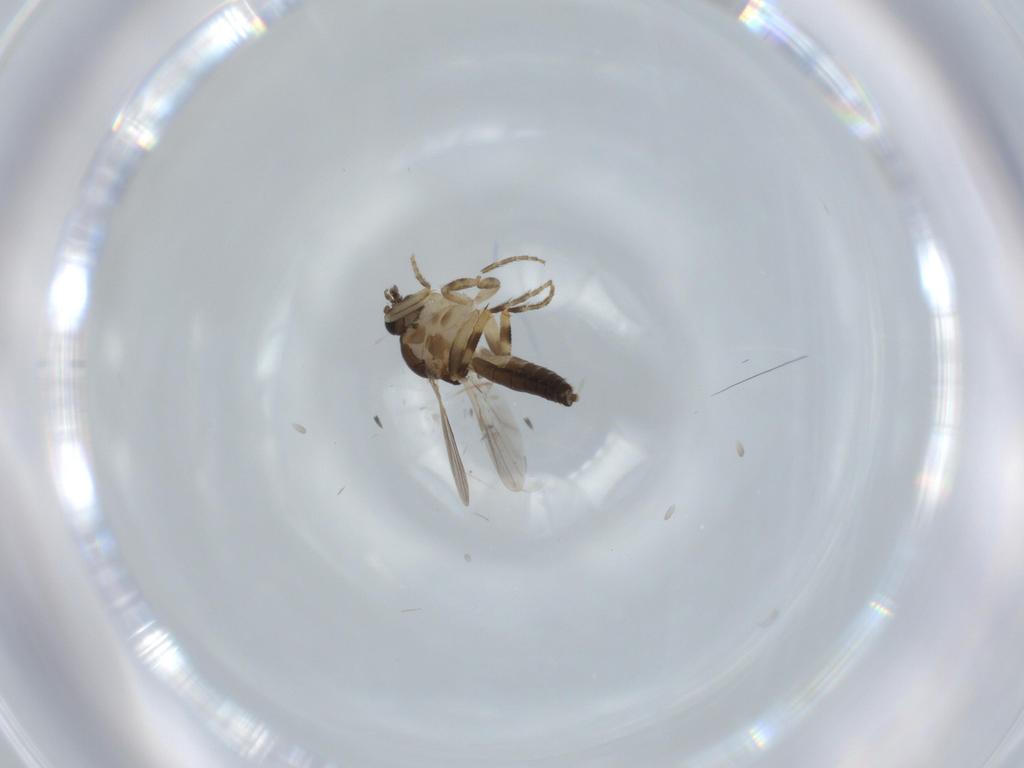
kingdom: Animalia
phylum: Arthropoda
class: Insecta
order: Diptera
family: Ceratopogonidae
